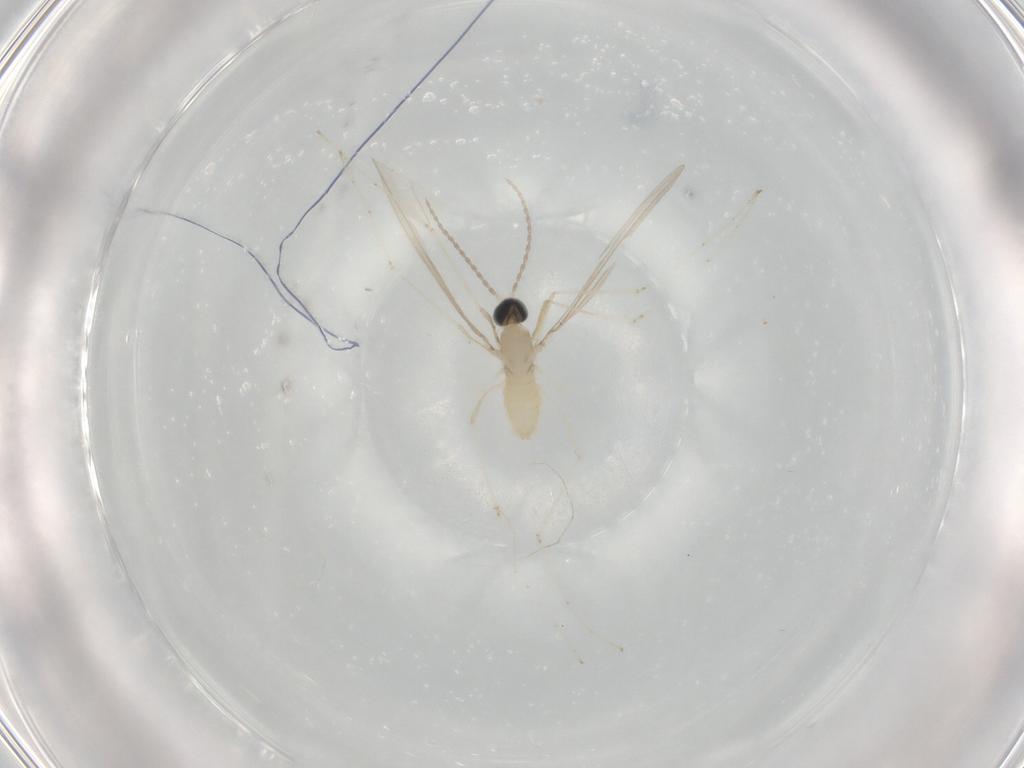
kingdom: Animalia
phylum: Arthropoda
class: Insecta
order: Diptera
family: Cecidomyiidae
